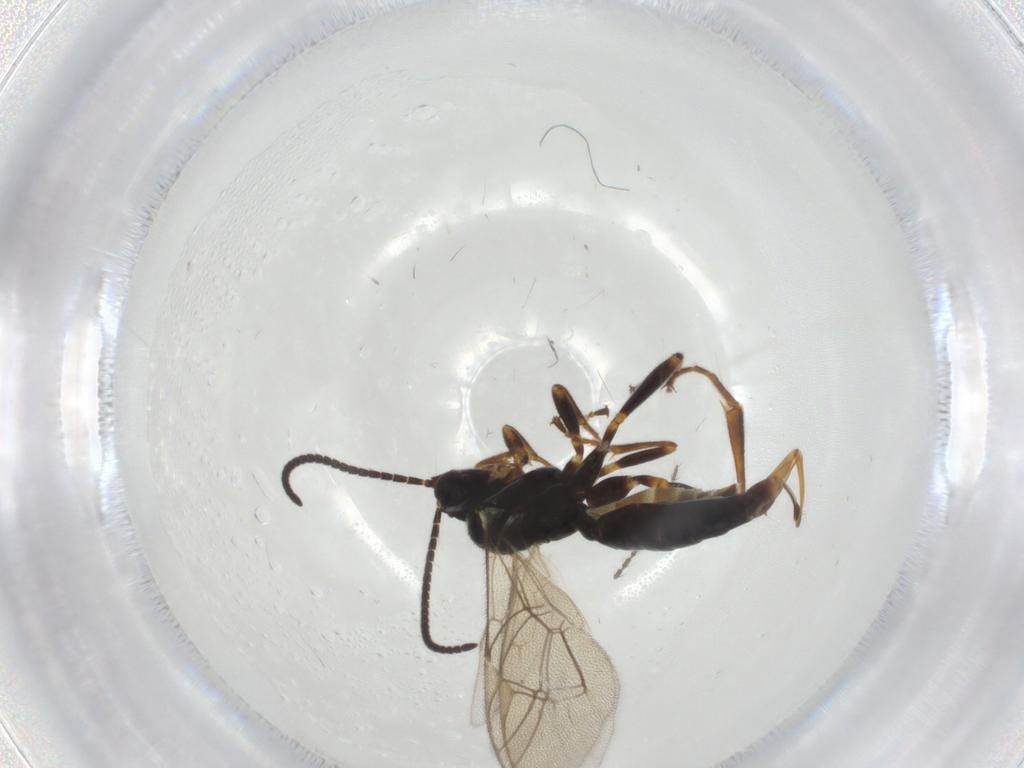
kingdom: Animalia
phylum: Arthropoda
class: Insecta
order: Hymenoptera
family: Ichneumonidae
